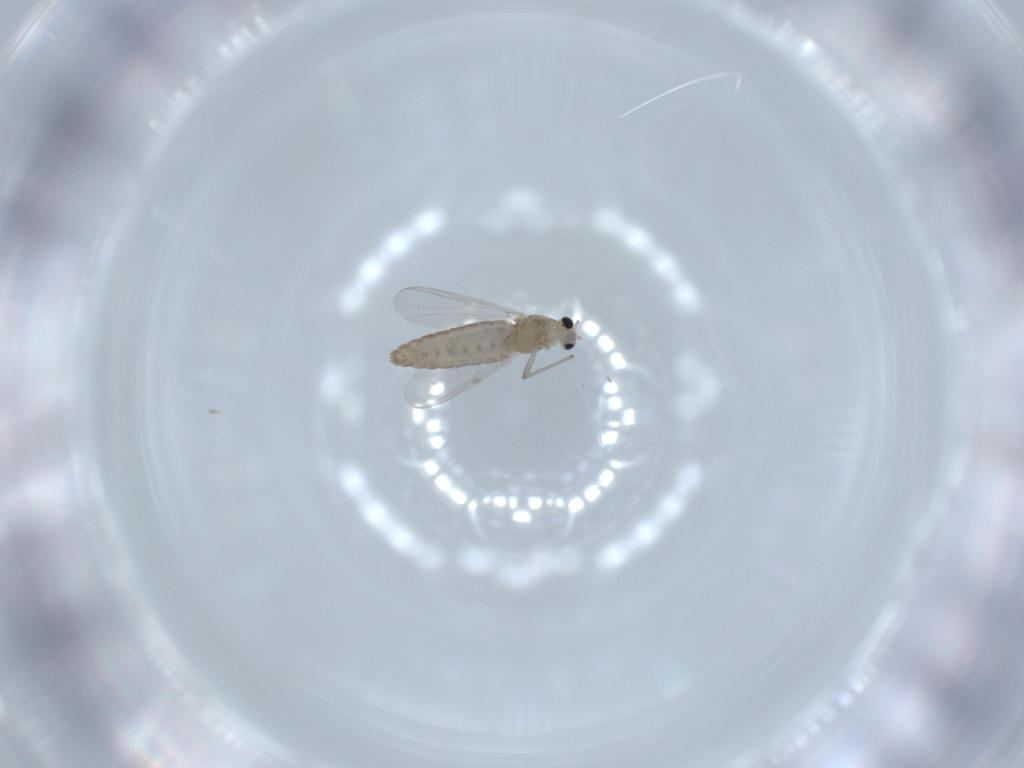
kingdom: Animalia
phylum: Arthropoda
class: Insecta
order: Diptera
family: Chironomidae
